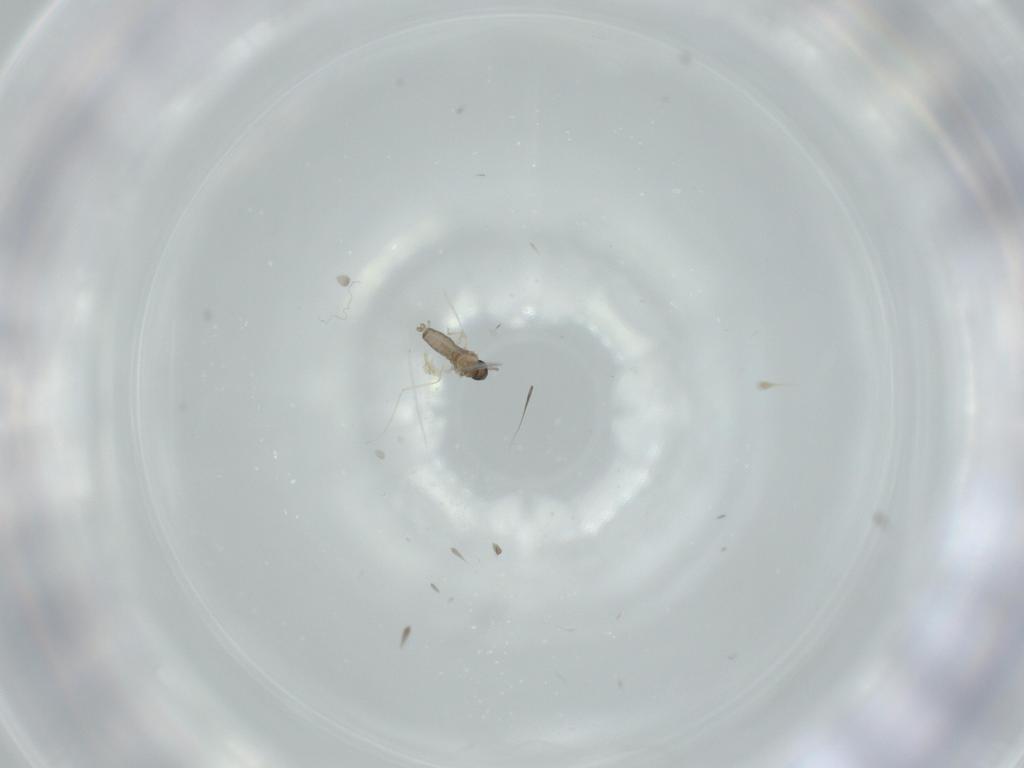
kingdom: Animalia
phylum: Arthropoda
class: Insecta
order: Diptera
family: Cecidomyiidae
